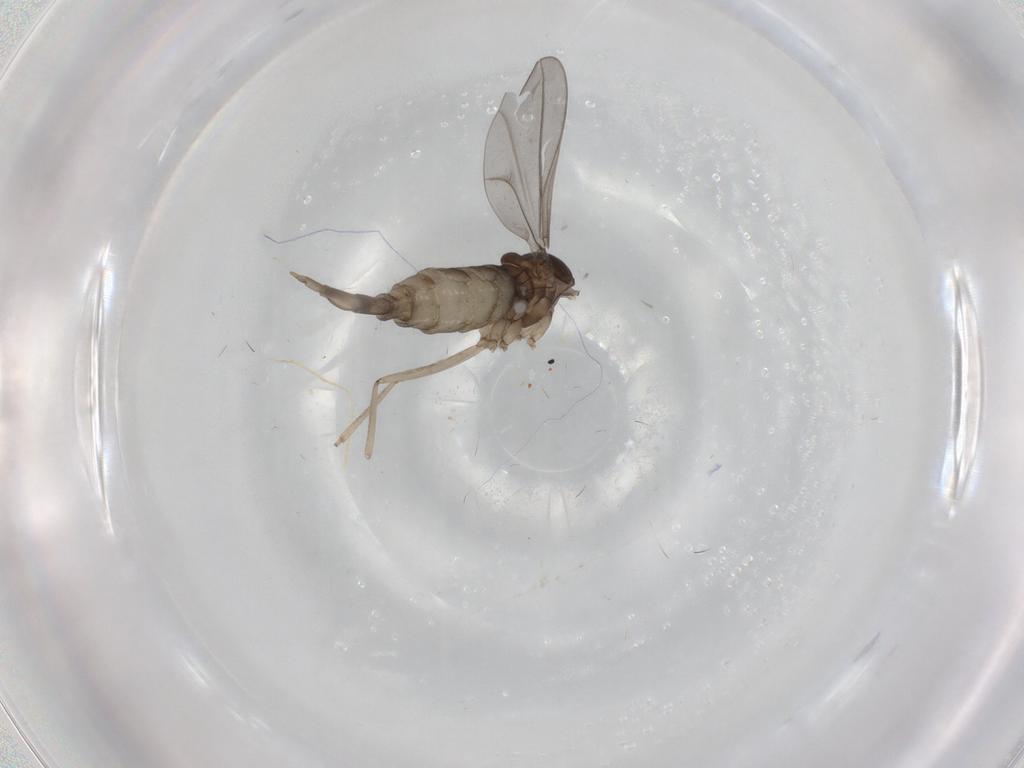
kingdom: Animalia
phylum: Arthropoda
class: Insecta
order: Diptera
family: Cecidomyiidae
